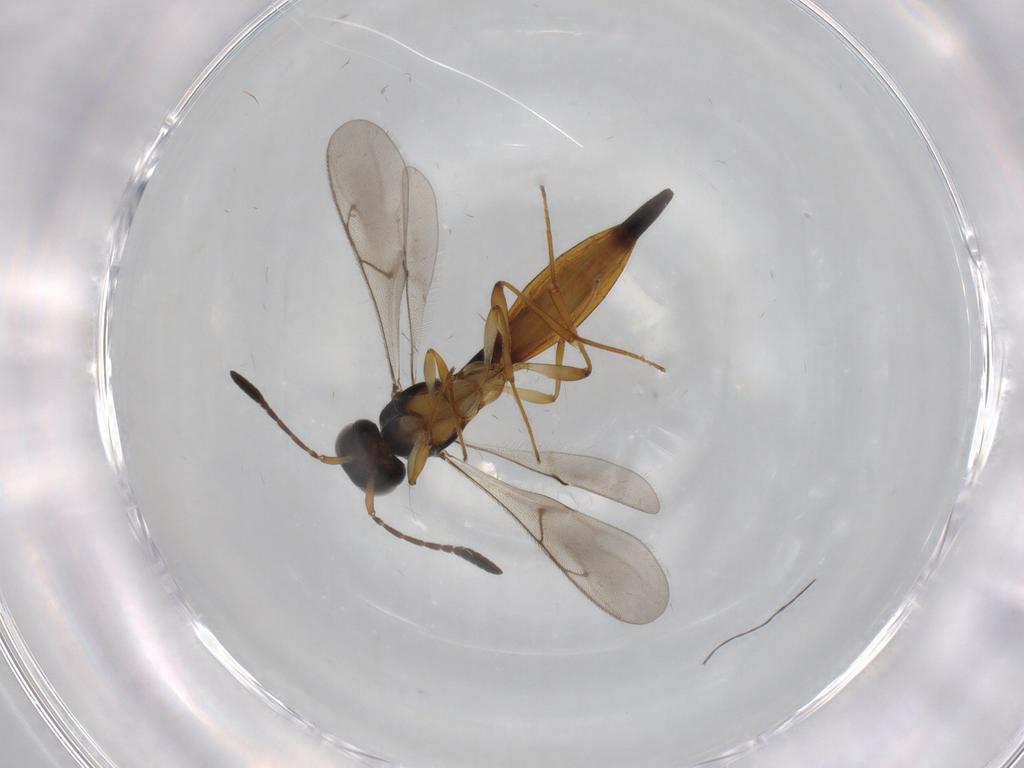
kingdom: Animalia
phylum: Arthropoda
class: Insecta
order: Hymenoptera
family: Scelionidae
